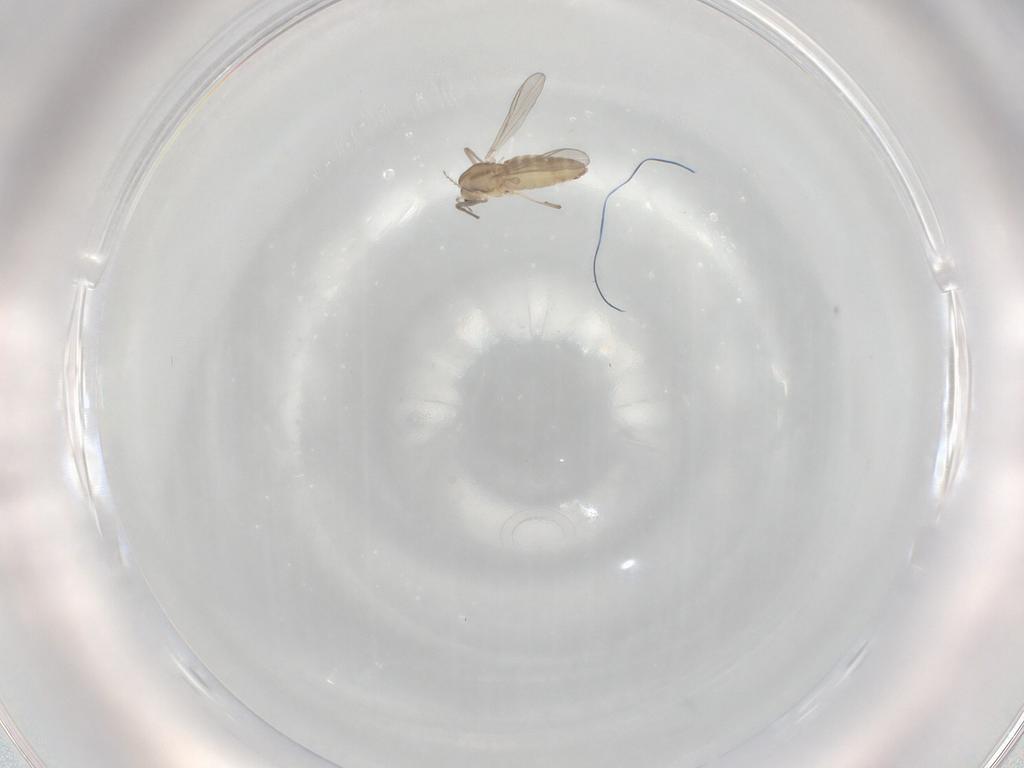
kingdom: Animalia
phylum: Arthropoda
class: Insecta
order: Diptera
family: Chironomidae
